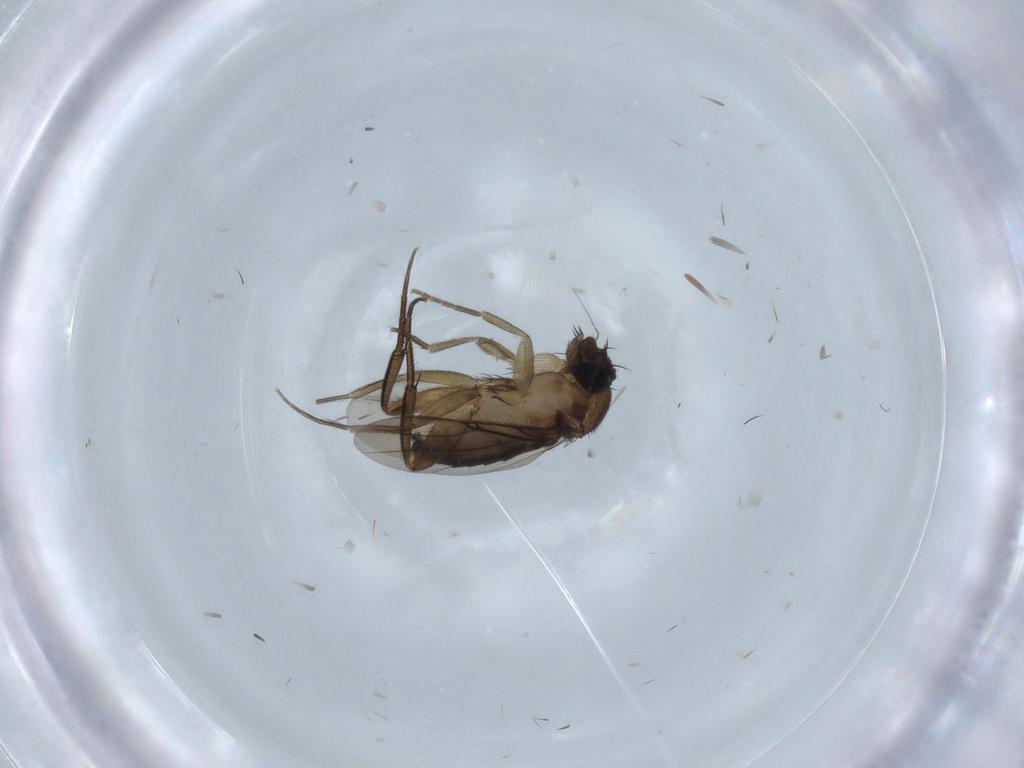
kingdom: Animalia
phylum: Arthropoda
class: Insecta
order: Diptera
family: Phoridae
